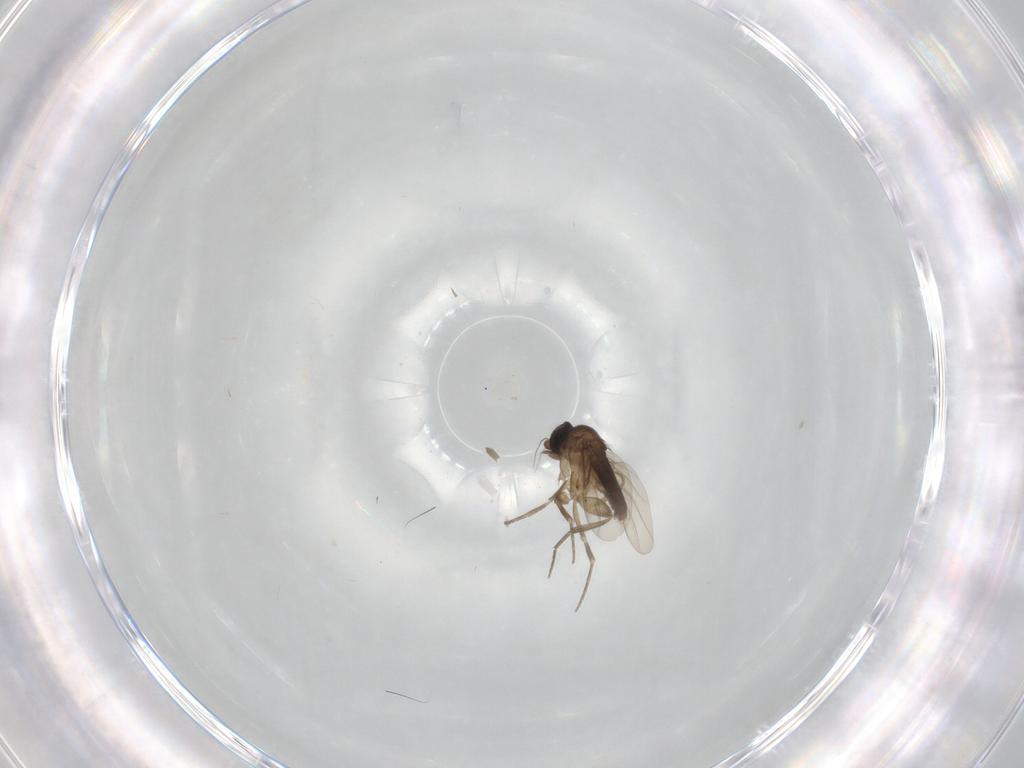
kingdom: Animalia
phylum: Arthropoda
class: Insecta
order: Diptera
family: Phoridae
